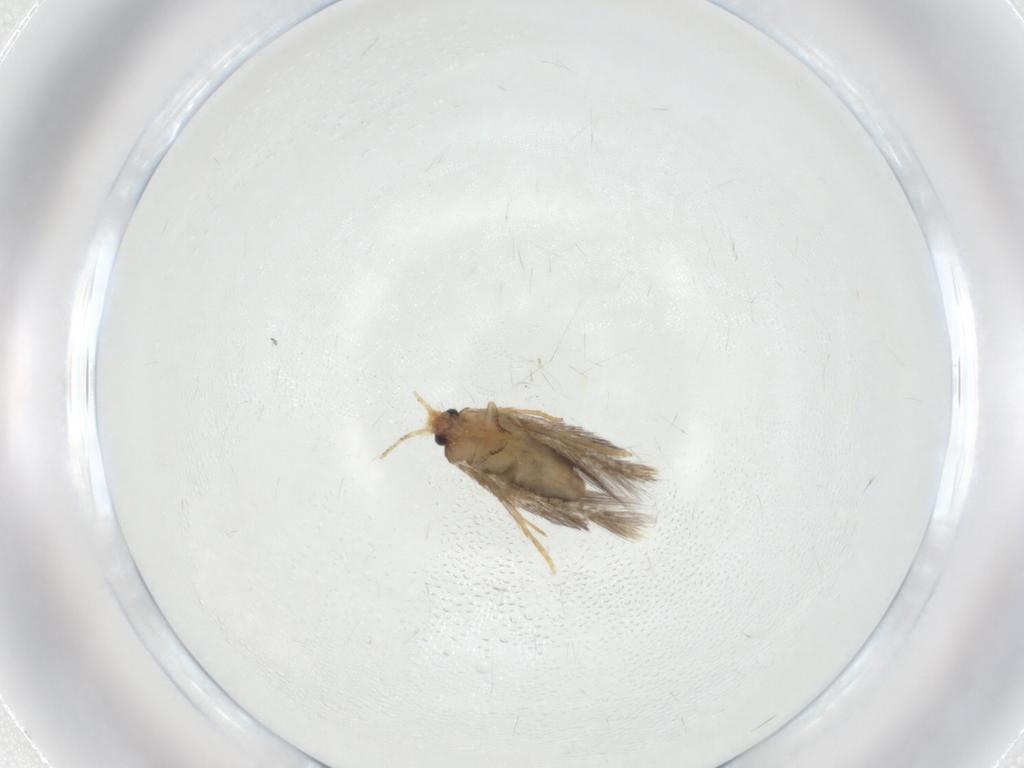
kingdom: Animalia
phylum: Arthropoda
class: Insecta
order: Lepidoptera
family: Nepticulidae
